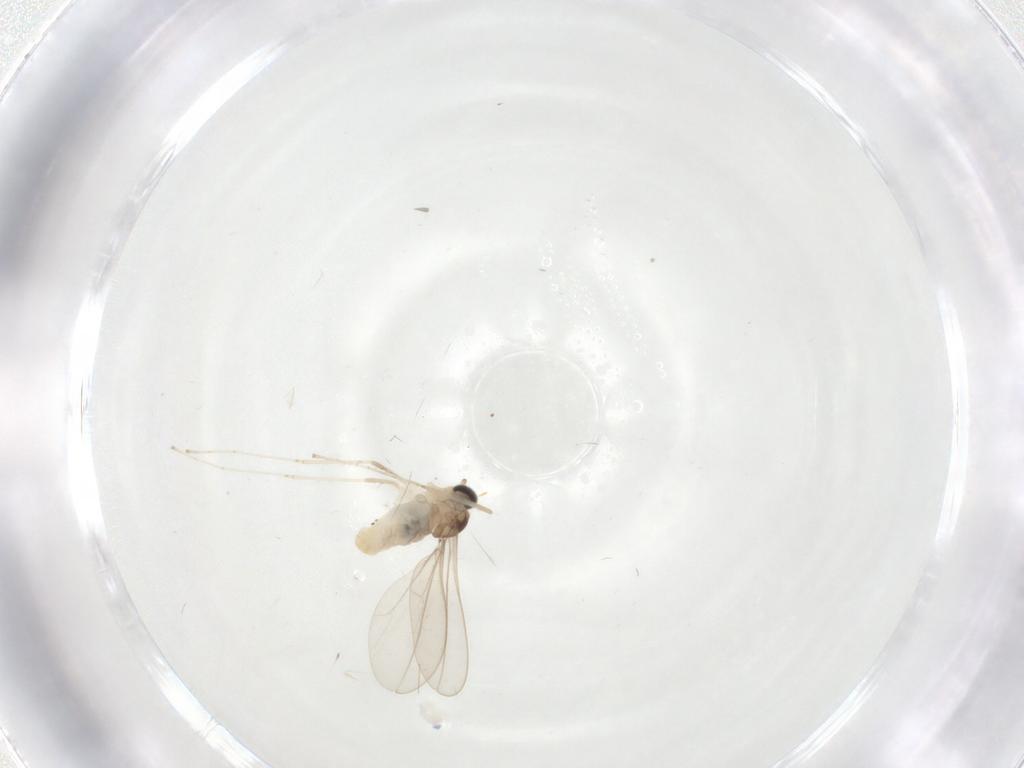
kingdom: Animalia
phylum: Arthropoda
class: Insecta
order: Diptera
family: Cecidomyiidae
